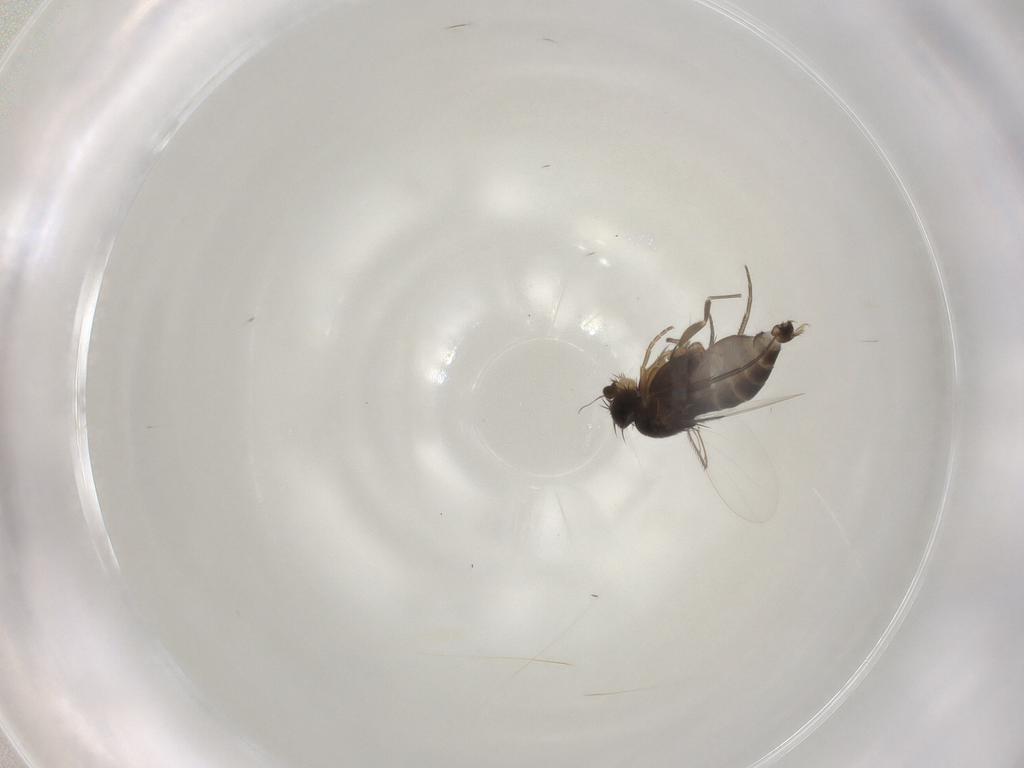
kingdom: Animalia
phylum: Arthropoda
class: Insecta
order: Diptera
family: Phoridae
